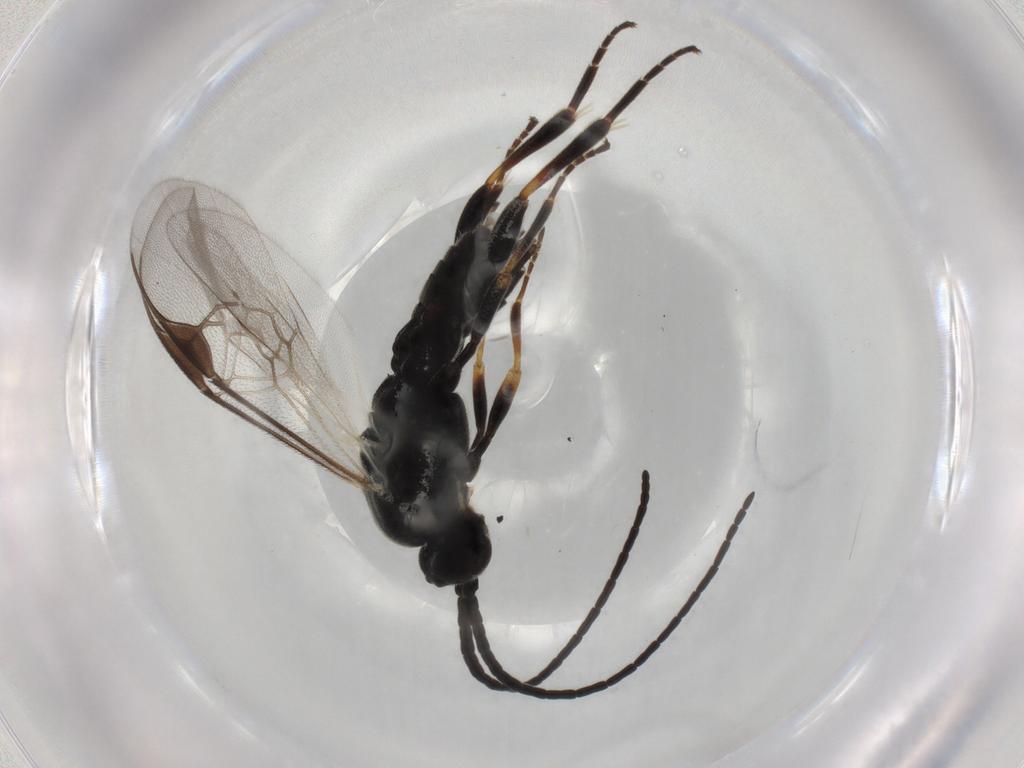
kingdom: Animalia
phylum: Arthropoda
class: Insecta
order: Hymenoptera
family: Braconidae
